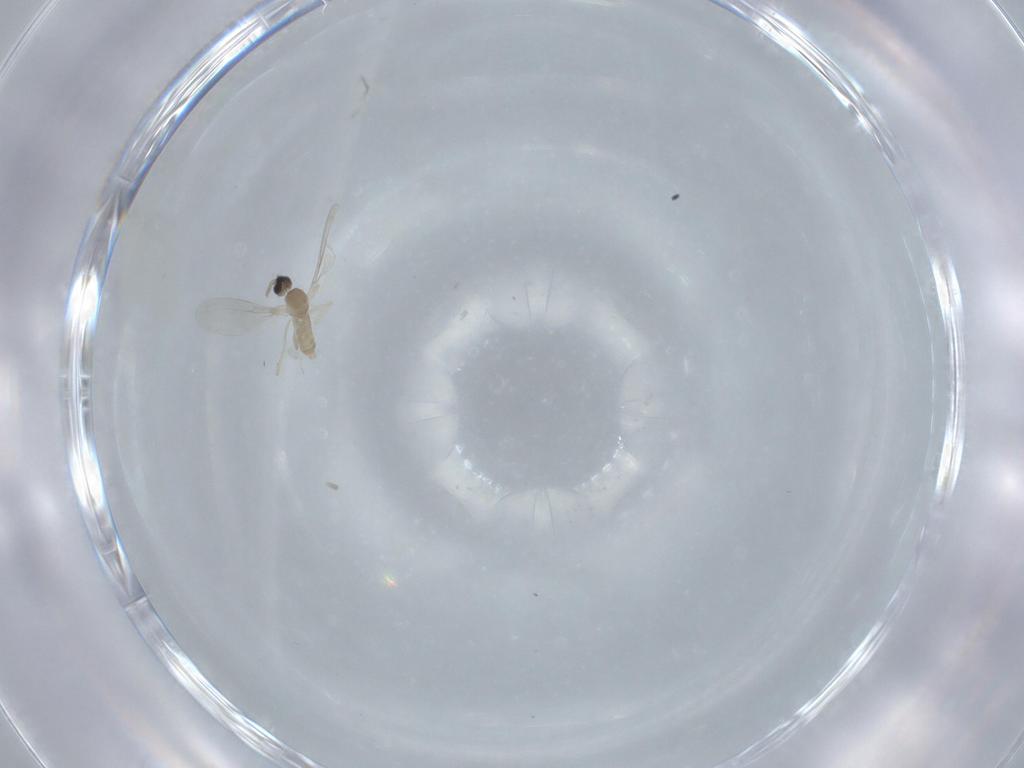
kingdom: Animalia
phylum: Arthropoda
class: Insecta
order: Diptera
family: Cecidomyiidae
